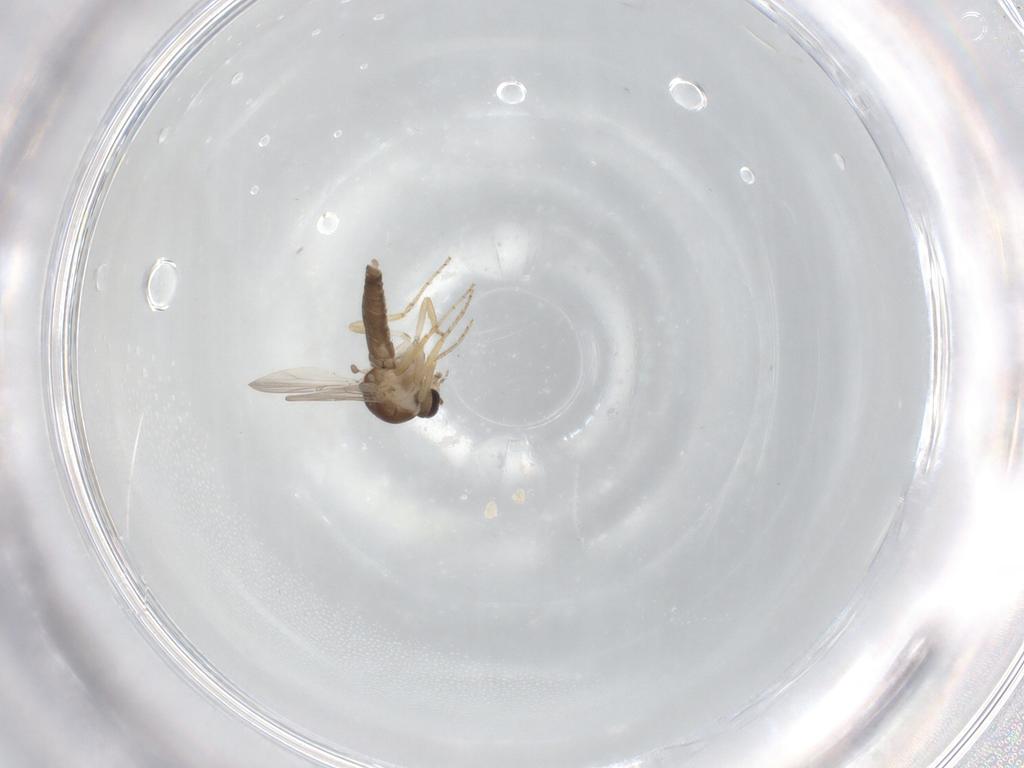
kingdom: Animalia
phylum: Arthropoda
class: Insecta
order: Diptera
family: Ceratopogonidae
